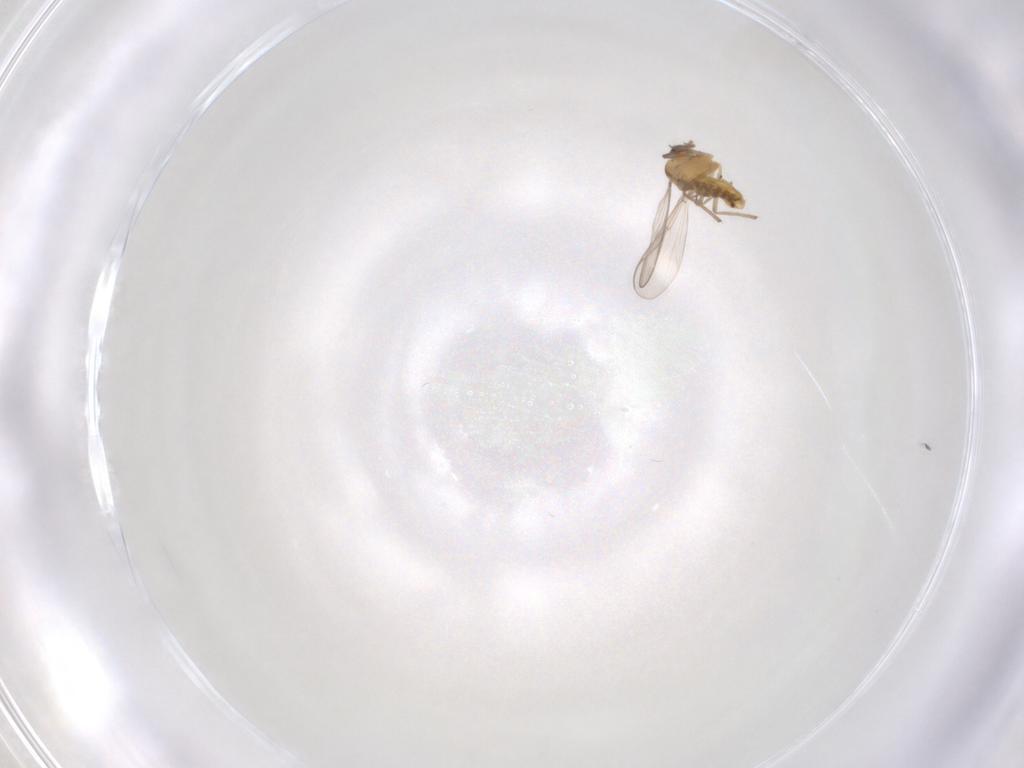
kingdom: Animalia
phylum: Arthropoda
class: Insecta
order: Diptera
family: Chironomidae
